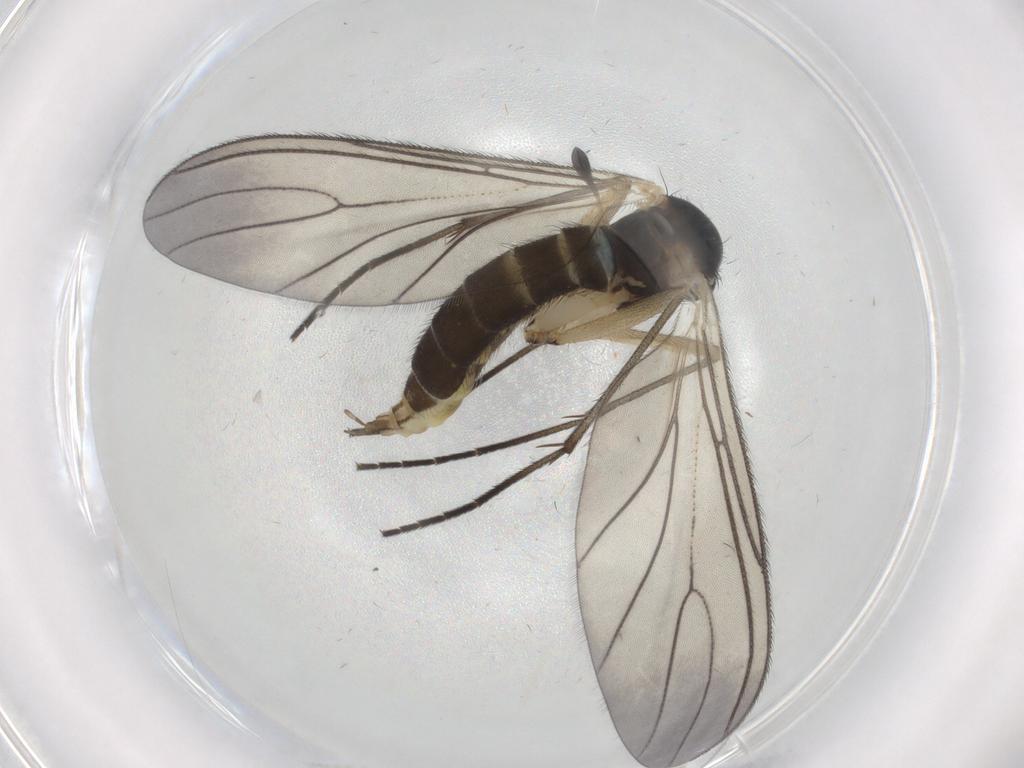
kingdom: Animalia
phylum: Arthropoda
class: Insecta
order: Diptera
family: Sciaridae
